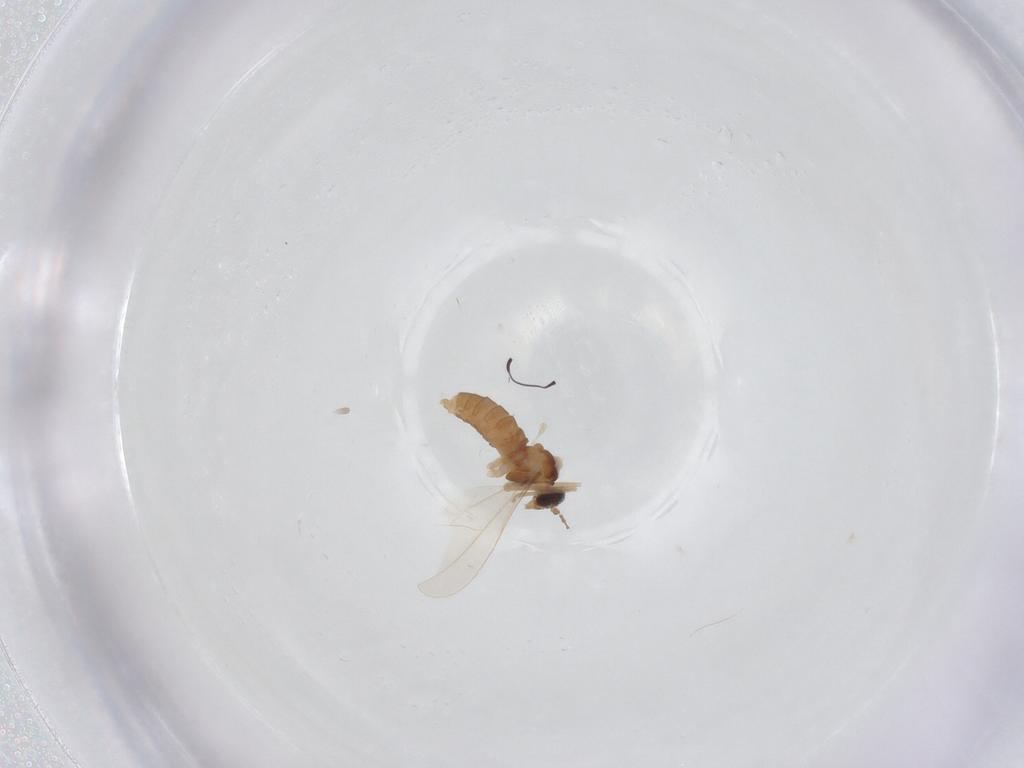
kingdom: Animalia
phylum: Arthropoda
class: Insecta
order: Diptera
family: Cecidomyiidae
